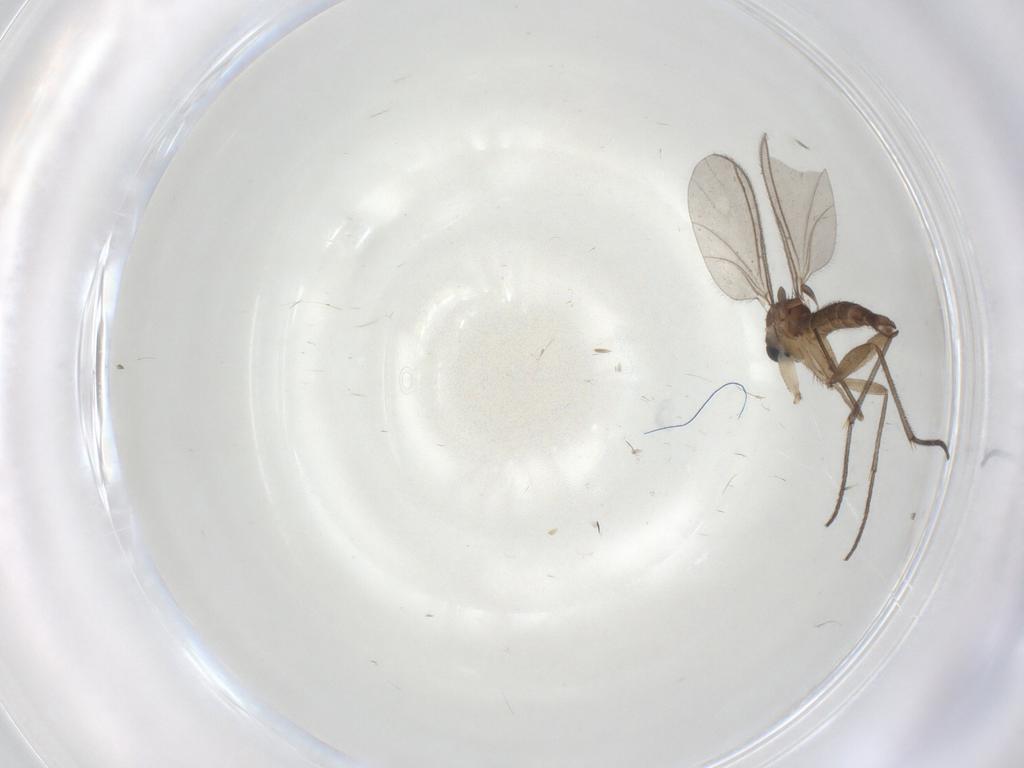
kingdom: Animalia
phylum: Arthropoda
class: Insecta
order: Diptera
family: Sciaridae
